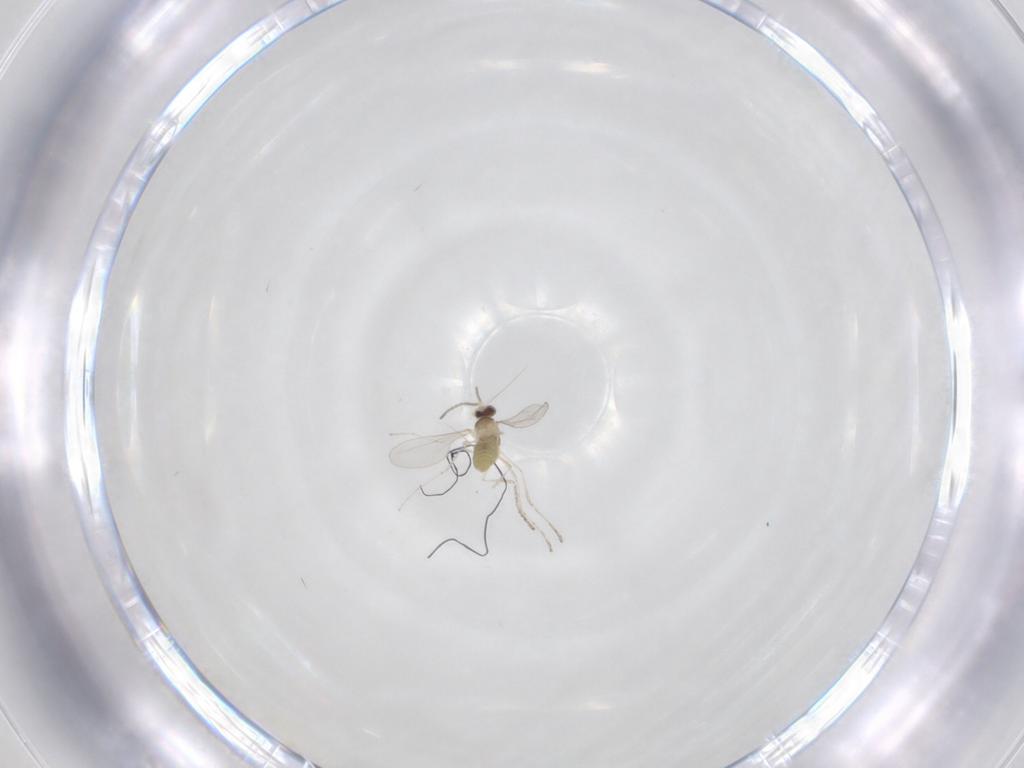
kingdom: Animalia
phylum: Arthropoda
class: Insecta
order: Diptera
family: Cecidomyiidae
